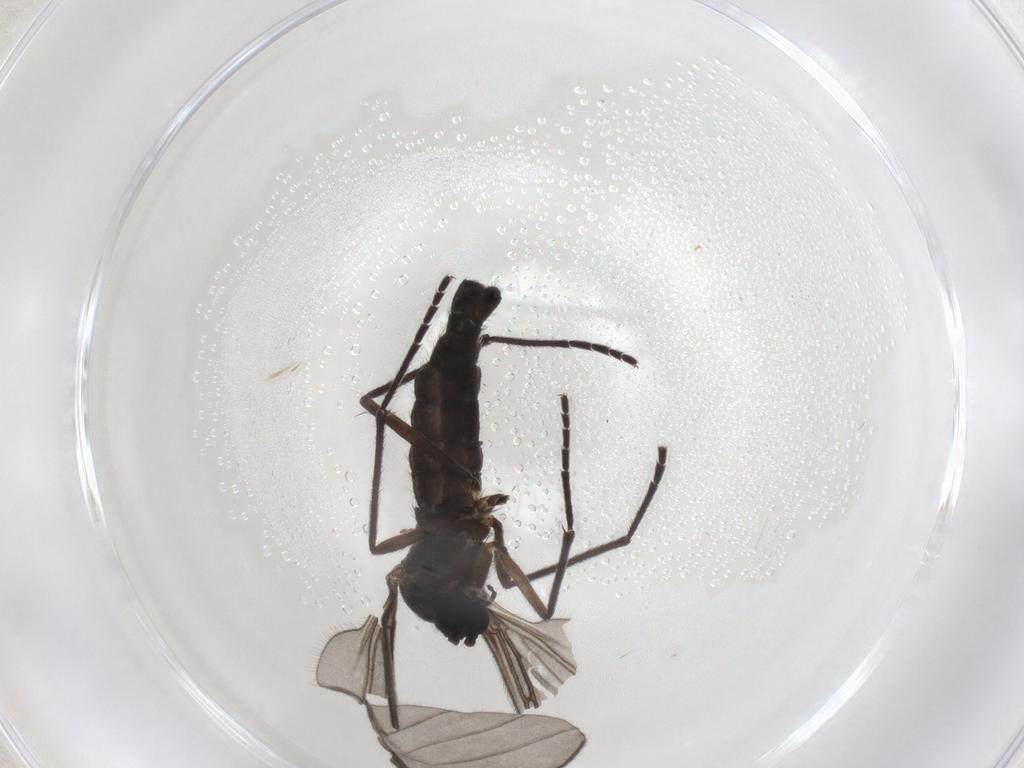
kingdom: Animalia
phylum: Arthropoda
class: Insecta
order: Diptera
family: Sciaridae
